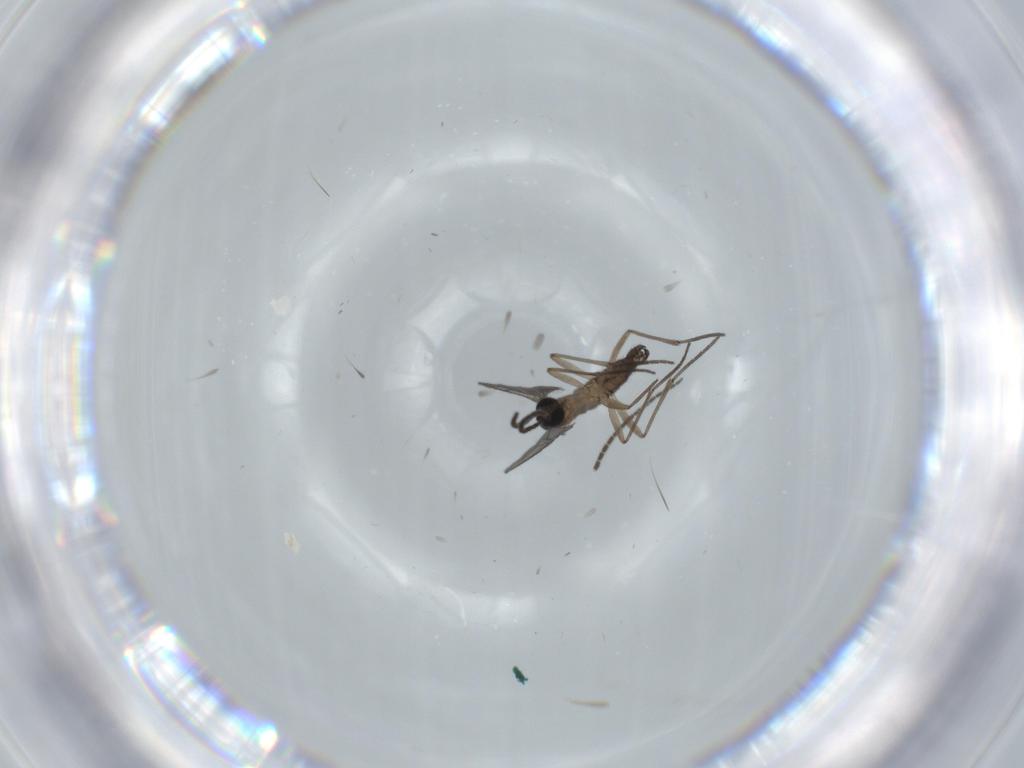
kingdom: Animalia
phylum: Arthropoda
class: Insecta
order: Diptera
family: Sciaridae
